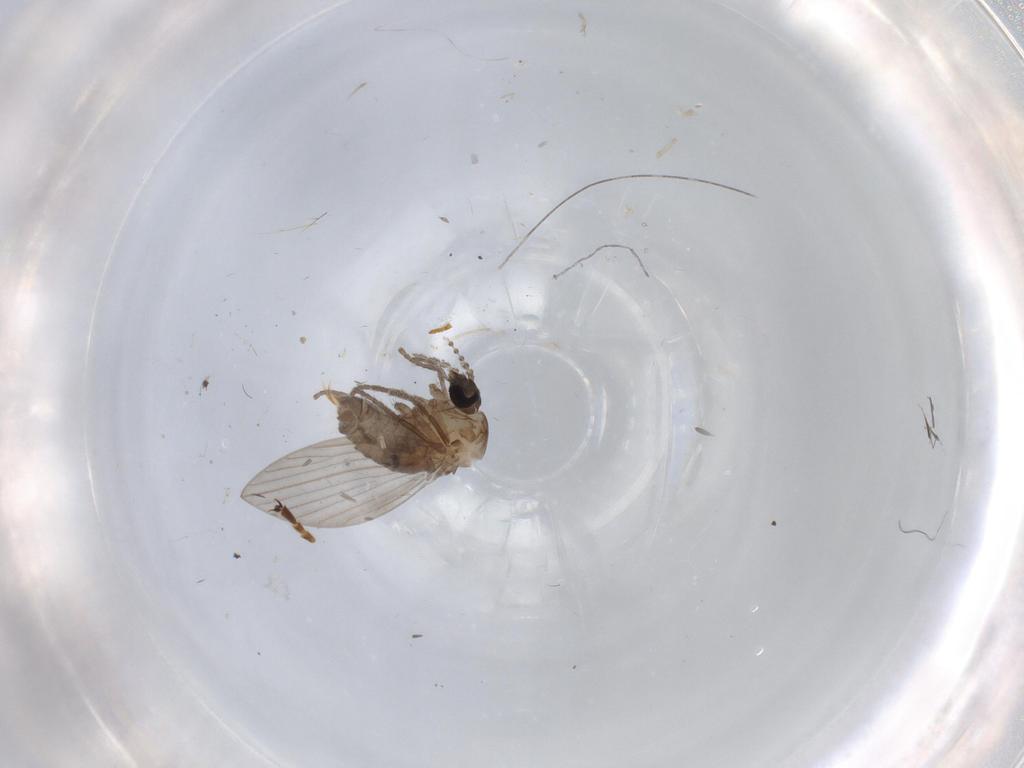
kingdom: Animalia
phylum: Arthropoda
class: Insecta
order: Diptera
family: Psychodidae
